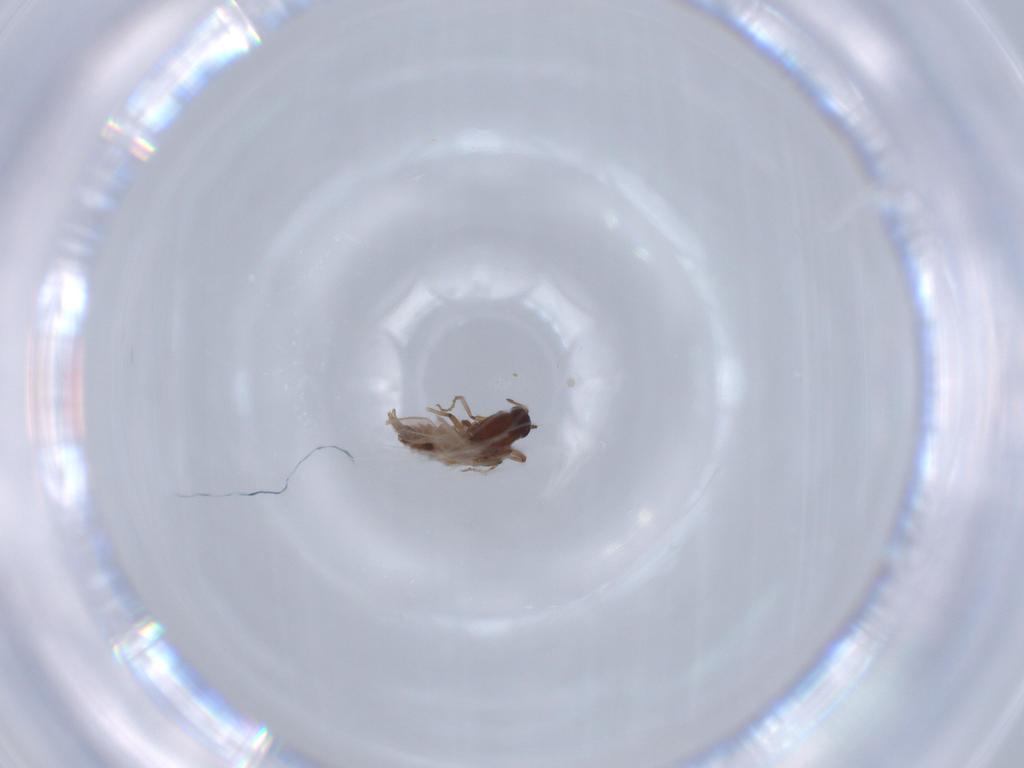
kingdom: Animalia
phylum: Arthropoda
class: Insecta
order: Diptera
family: Ceratopogonidae
